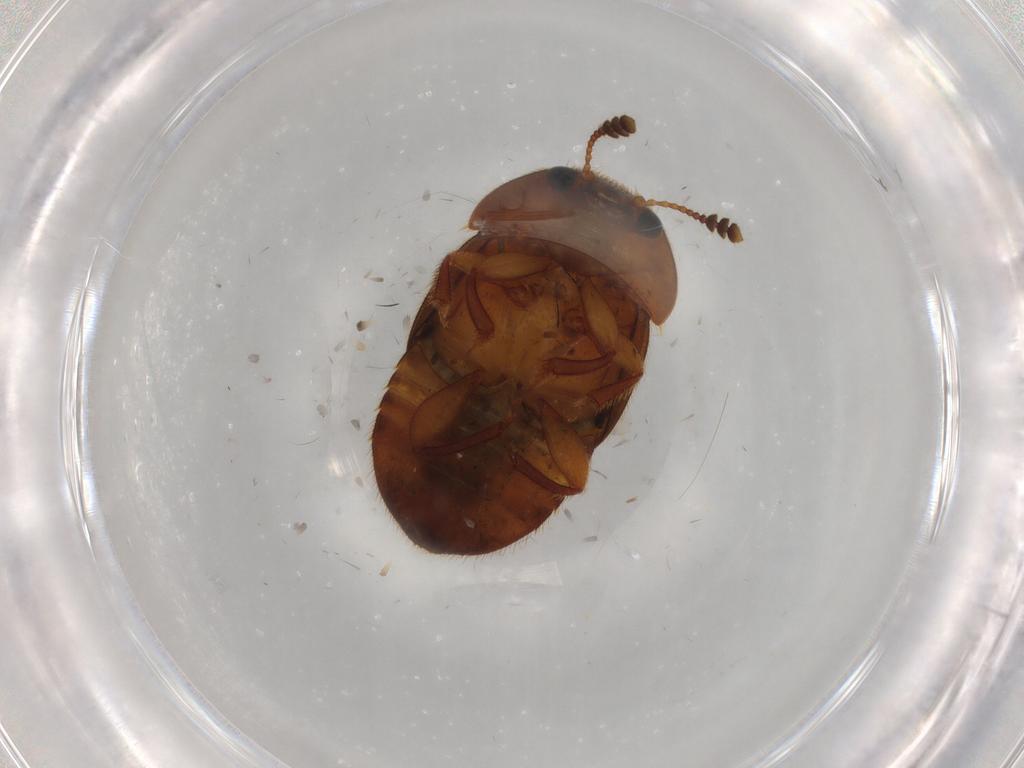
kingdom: Animalia
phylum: Arthropoda
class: Insecta
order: Coleoptera
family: Nitidulidae
